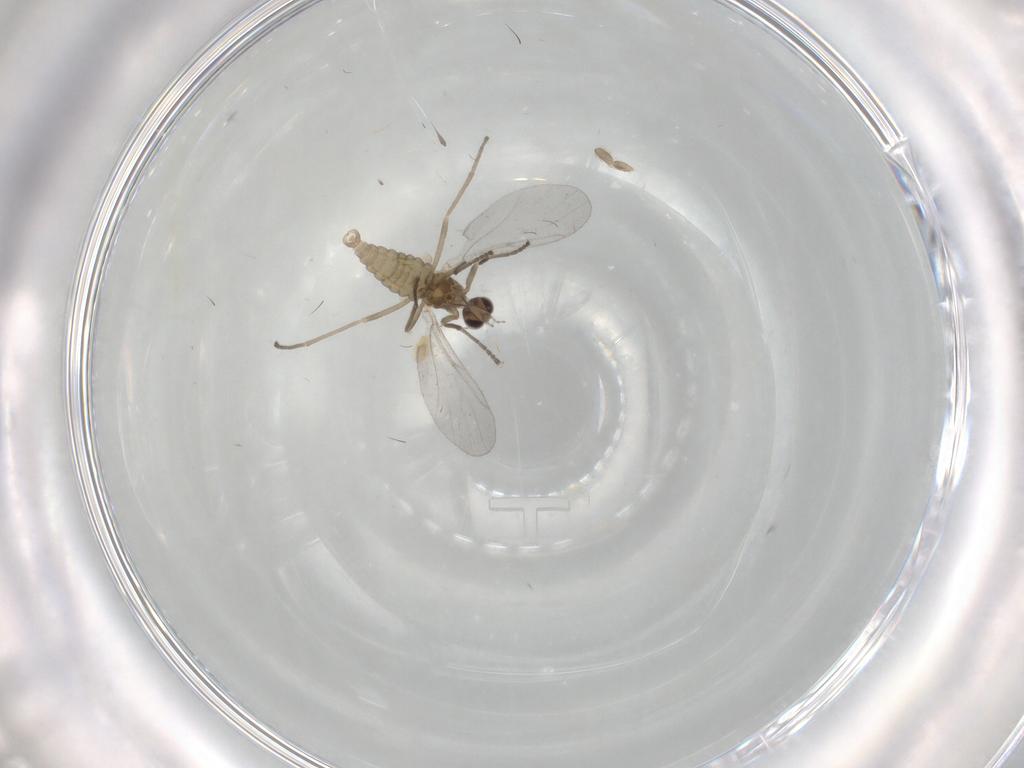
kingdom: Animalia
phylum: Arthropoda
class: Insecta
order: Diptera
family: Cecidomyiidae
